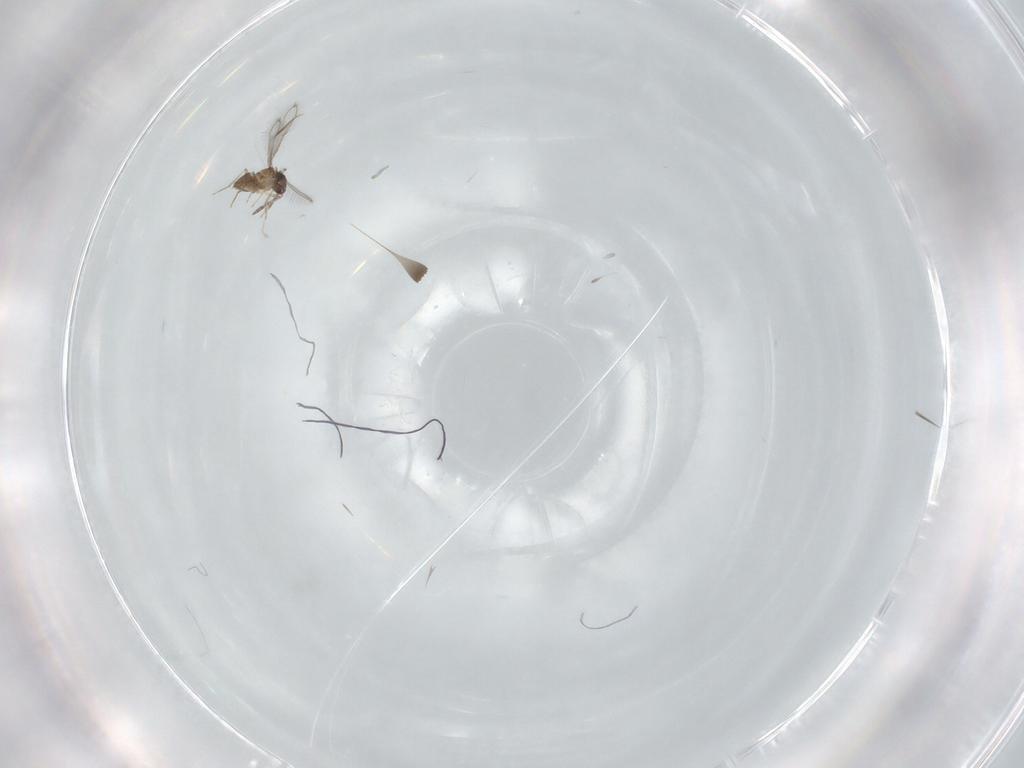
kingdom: Animalia
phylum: Arthropoda
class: Insecta
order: Hymenoptera
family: Mymaridae
